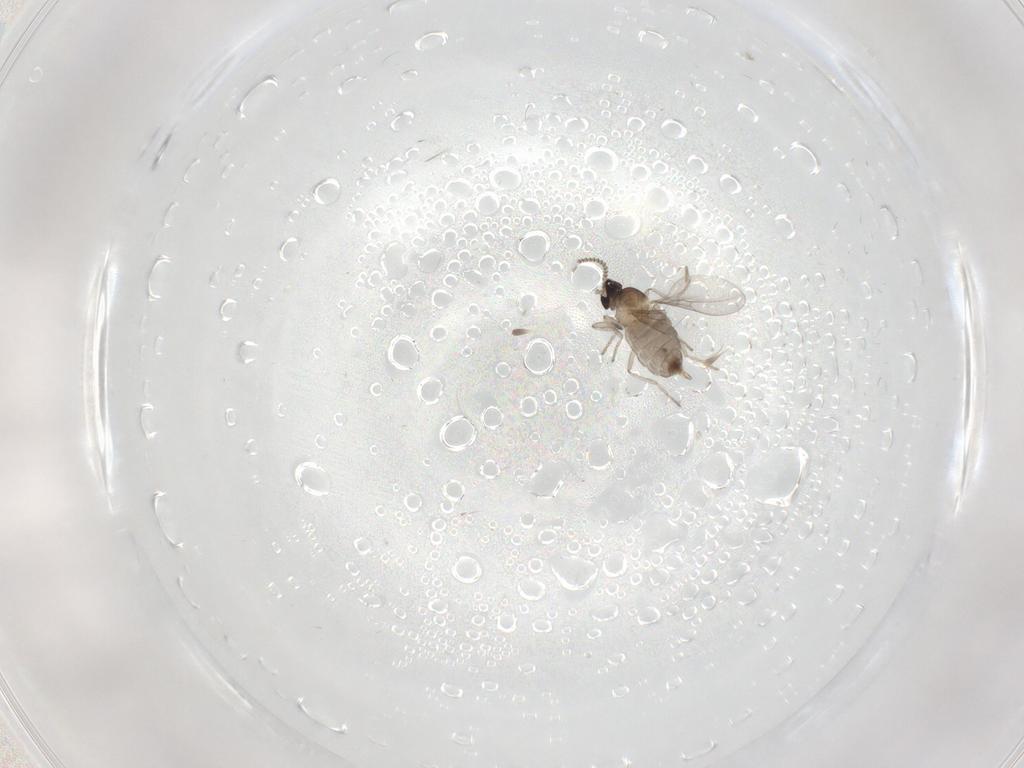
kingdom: Animalia
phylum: Arthropoda
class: Insecta
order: Diptera
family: Cecidomyiidae
